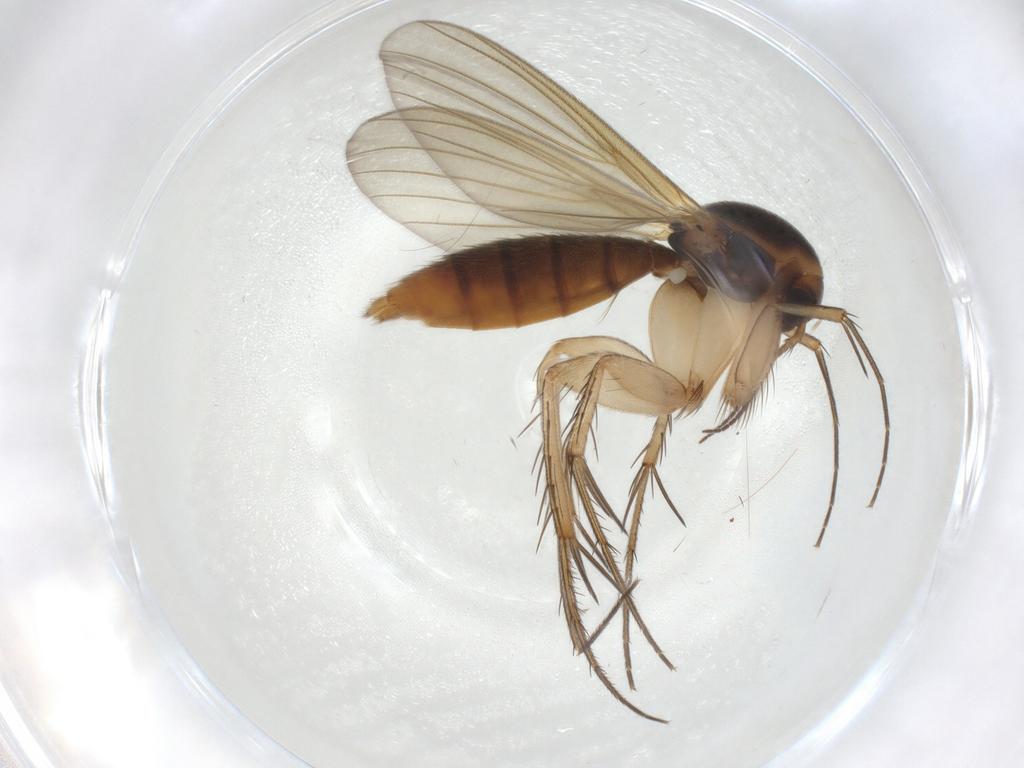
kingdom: Animalia
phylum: Arthropoda
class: Insecta
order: Diptera
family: Mycetophilidae
